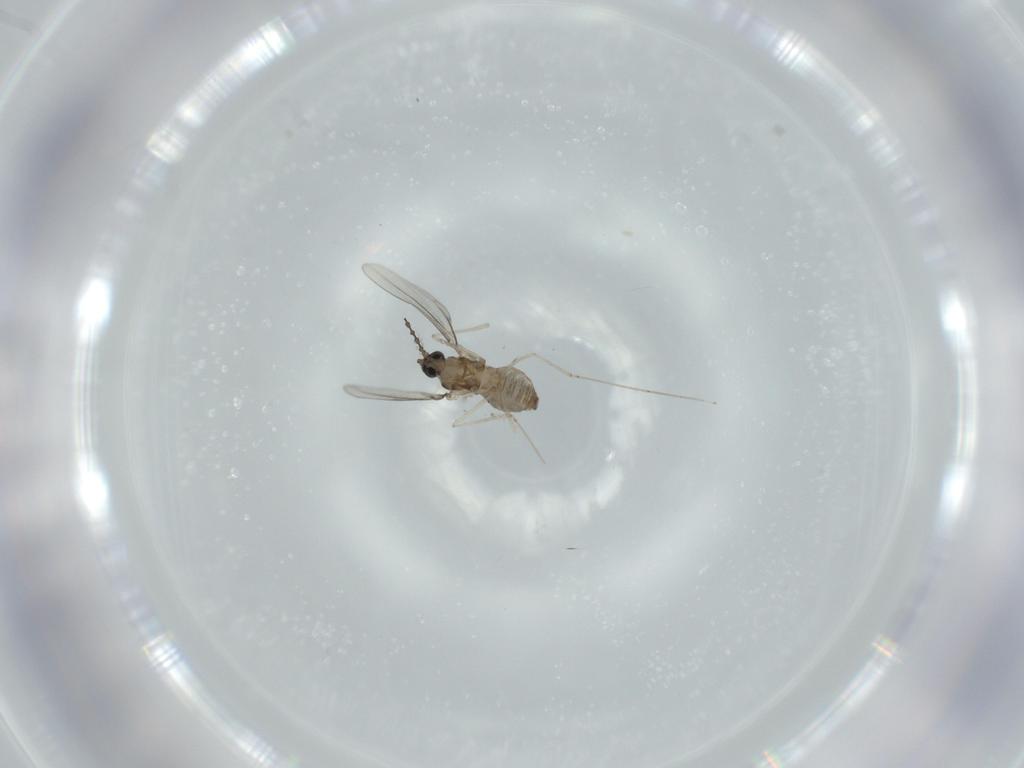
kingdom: Animalia
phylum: Arthropoda
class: Insecta
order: Diptera
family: Cecidomyiidae
